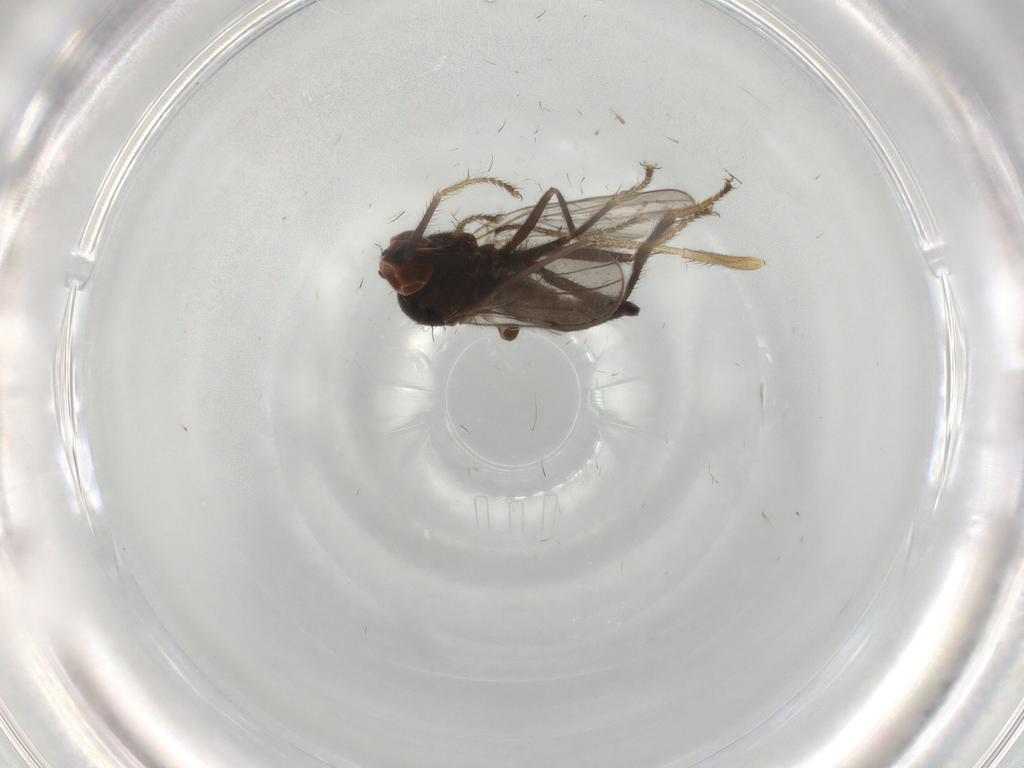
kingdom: Animalia
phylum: Arthropoda
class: Insecta
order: Diptera
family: Hybotidae
